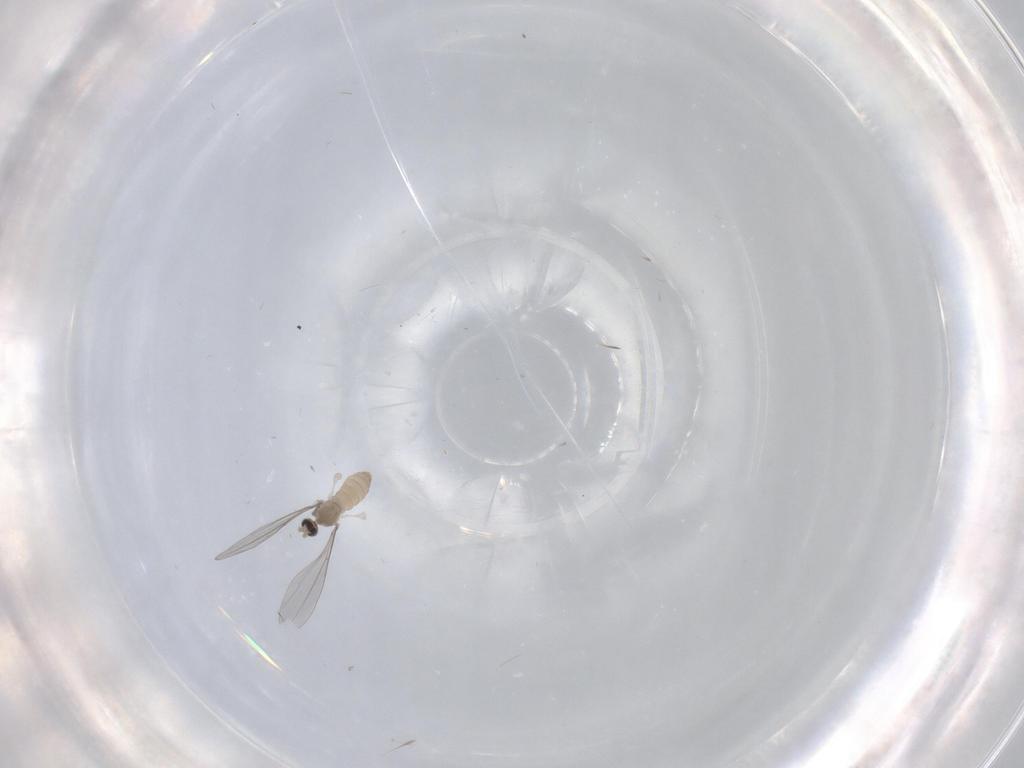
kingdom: Animalia
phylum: Arthropoda
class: Insecta
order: Diptera
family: Cecidomyiidae
